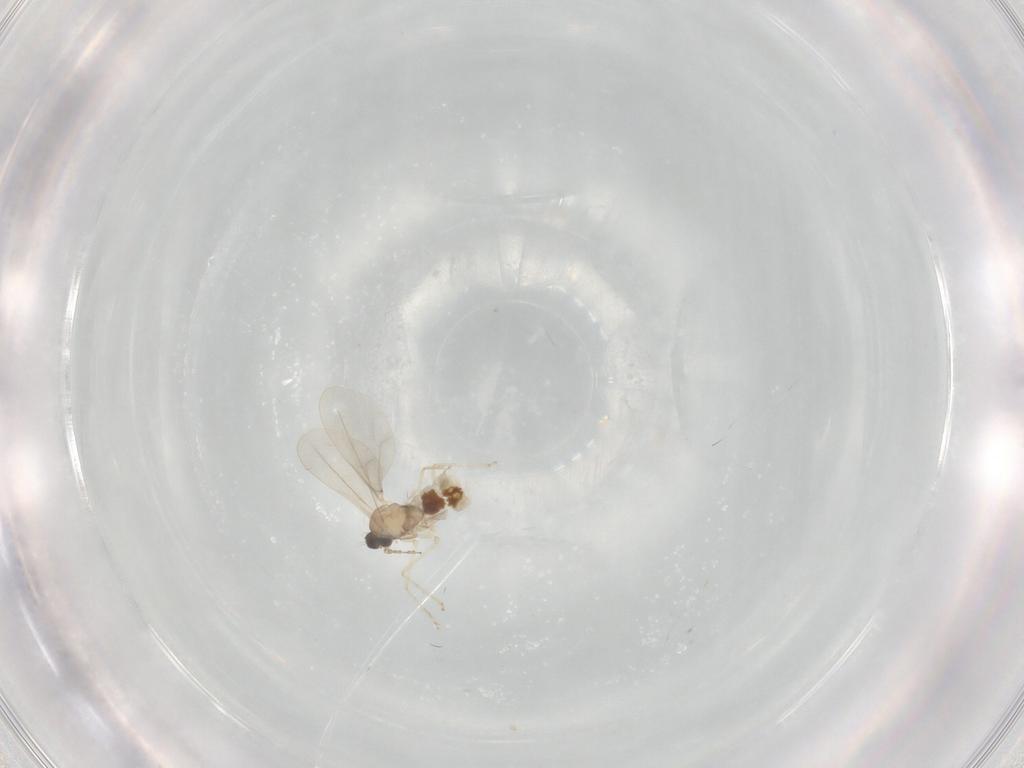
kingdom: Animalia
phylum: Arthropoda
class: Insecta
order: Diptera
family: Cecidomyiidae
